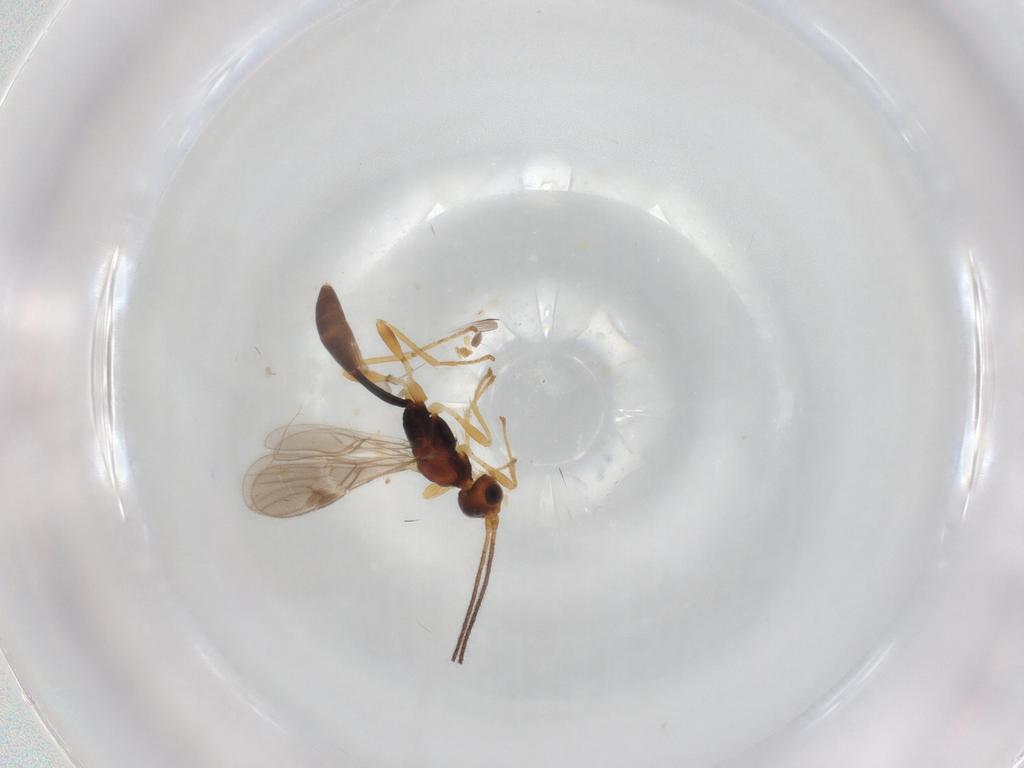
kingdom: Animalia
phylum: Arthropoda
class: Insecta
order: Hymenoptera
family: Braconidae
